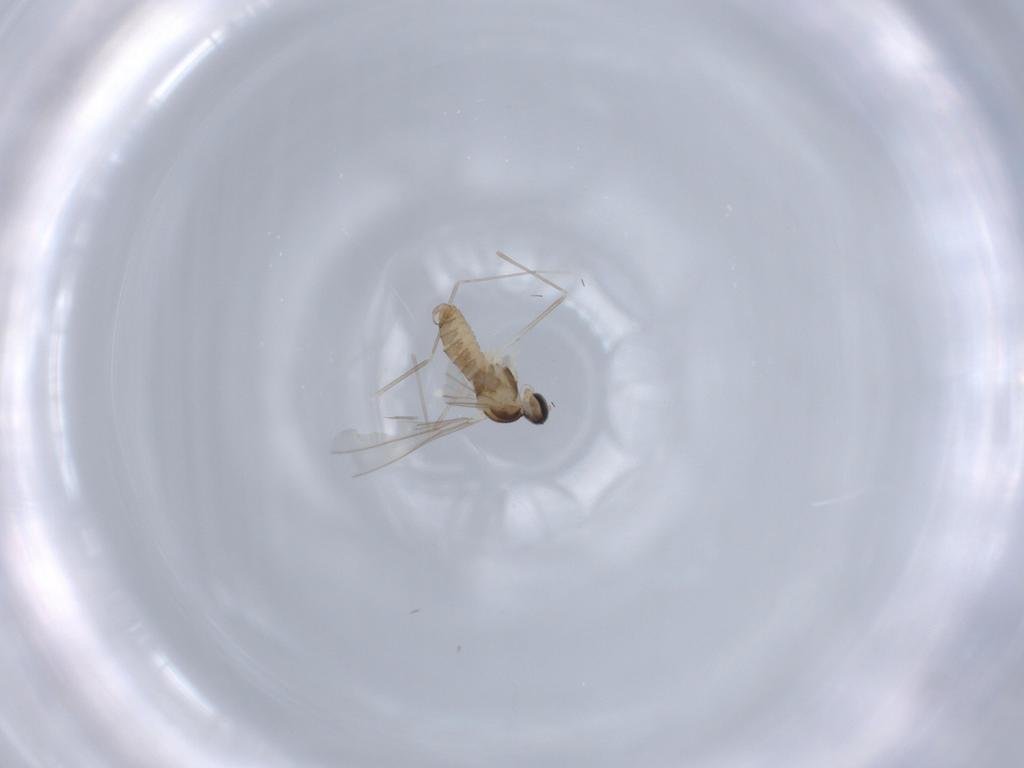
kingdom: Animalia
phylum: Arthropoda
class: Insecta
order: Diptera
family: Cecidomyiidae
